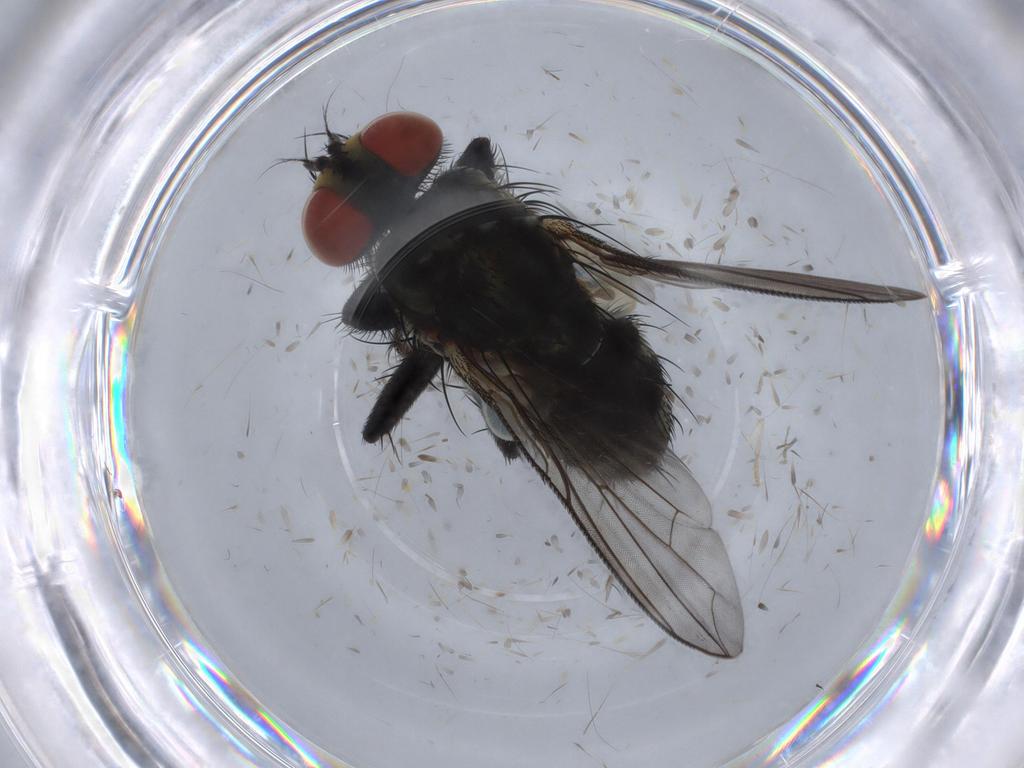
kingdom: Animalia
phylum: Arthropoda
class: Insecta
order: Diptera
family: Sarcophagidae
